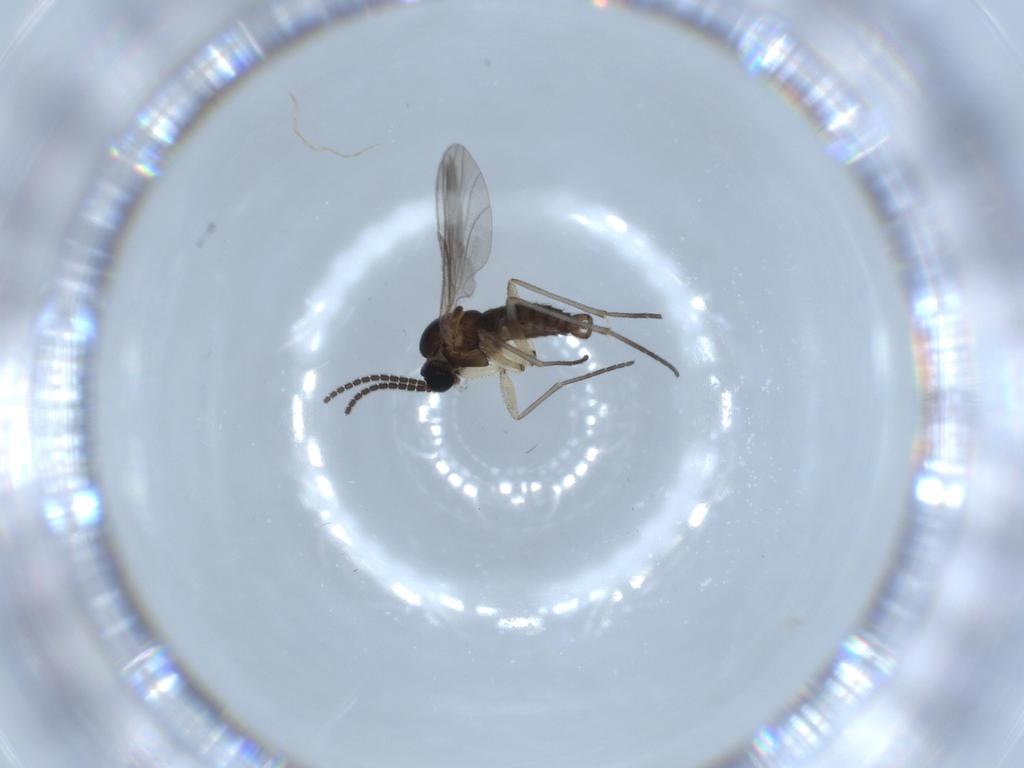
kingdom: Animalia
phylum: Arthropoda
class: Insecta
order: Diptera
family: Sciaridae
